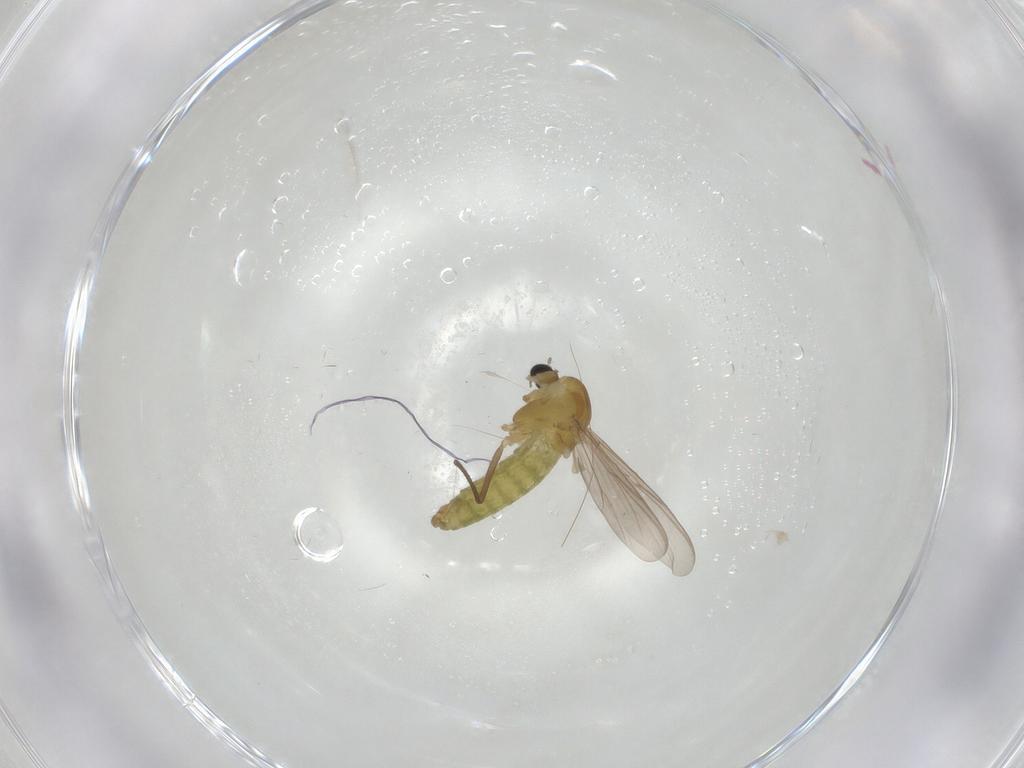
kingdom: Animalia
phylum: Arthropoda
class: Insecta
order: Diptera
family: Chironomidae
